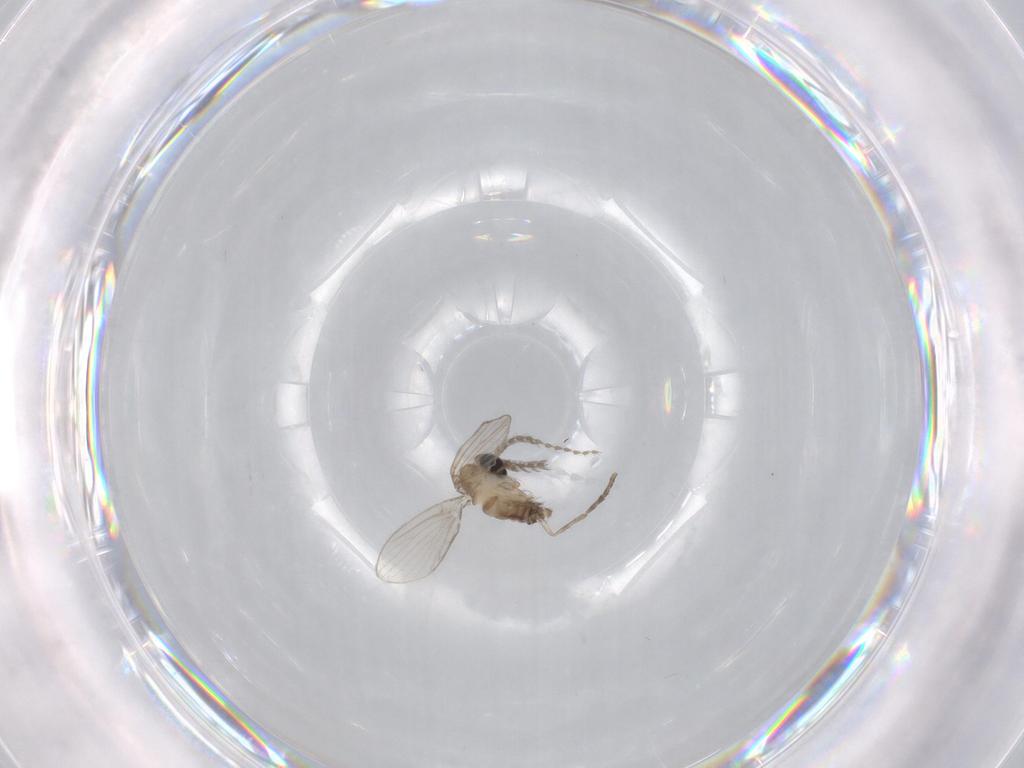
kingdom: Animalia
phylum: Arthropoda
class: Insecta
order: Diptera
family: Psychodidae
